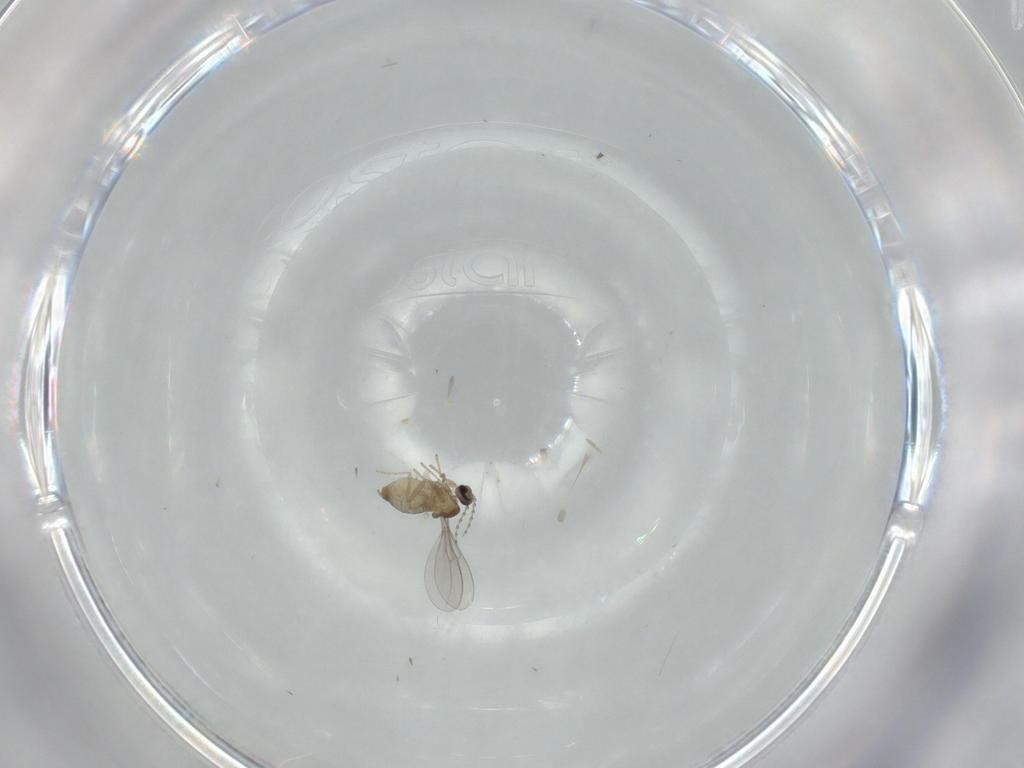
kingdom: Animalia
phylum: Arthropoda
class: Insecta
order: Diptera
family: Cecidomyiidae
